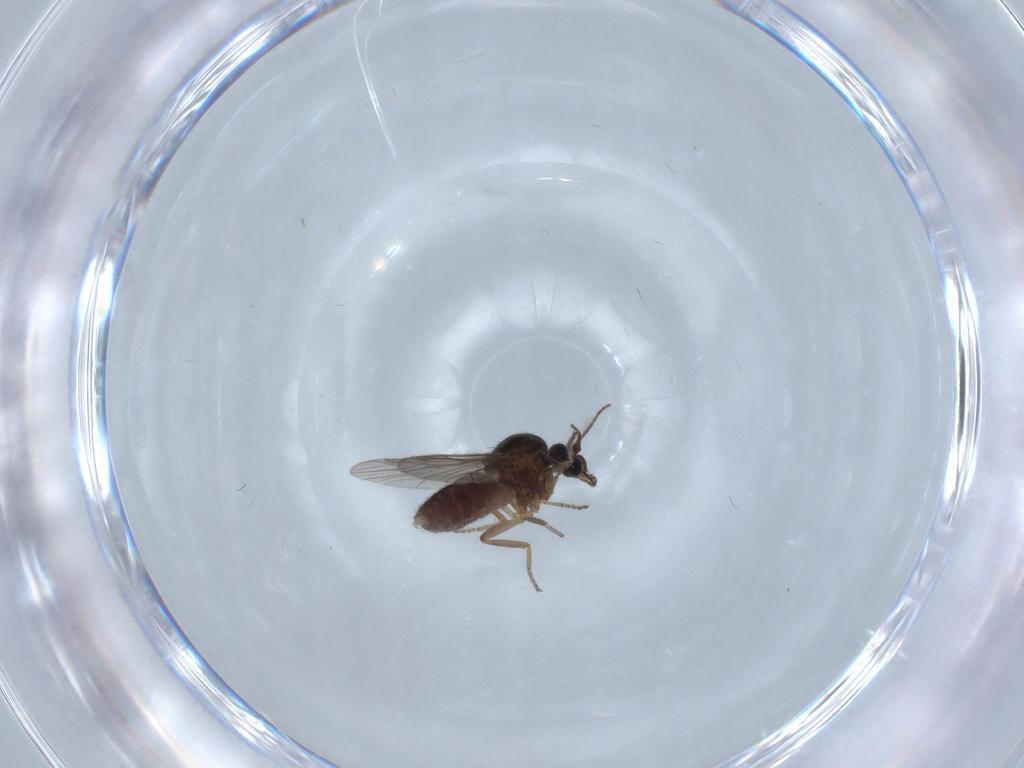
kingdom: Animalia
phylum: Arthropoda
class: Insecta
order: Diptera
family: Ceratopogonidae
